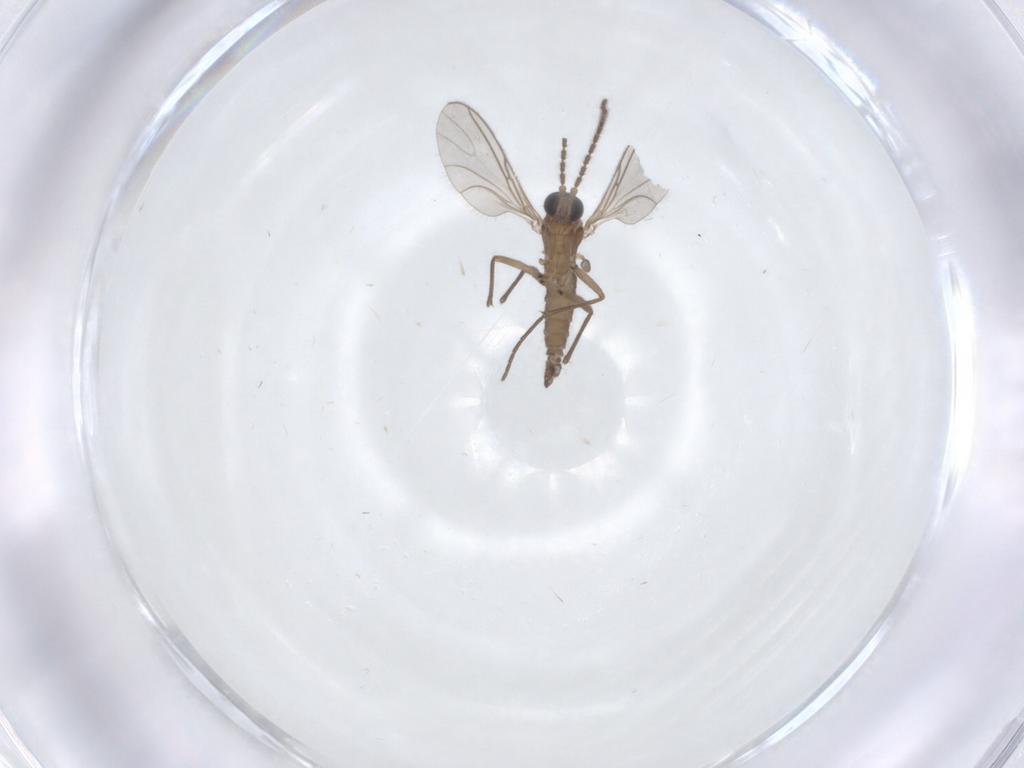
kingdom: Animalia
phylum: Arthropoda
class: Insecta
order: Diptera
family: Sciaridae
